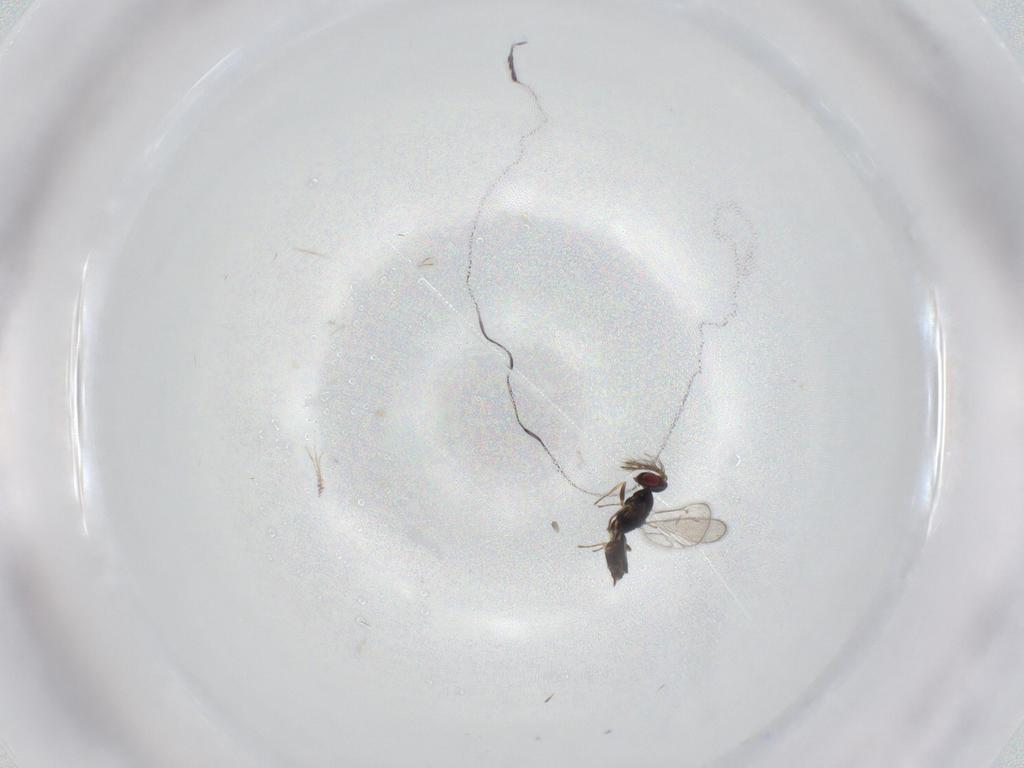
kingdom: Animalia
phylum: Arthropoda
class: Insecta
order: Hymenoptera
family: Eulophidae
